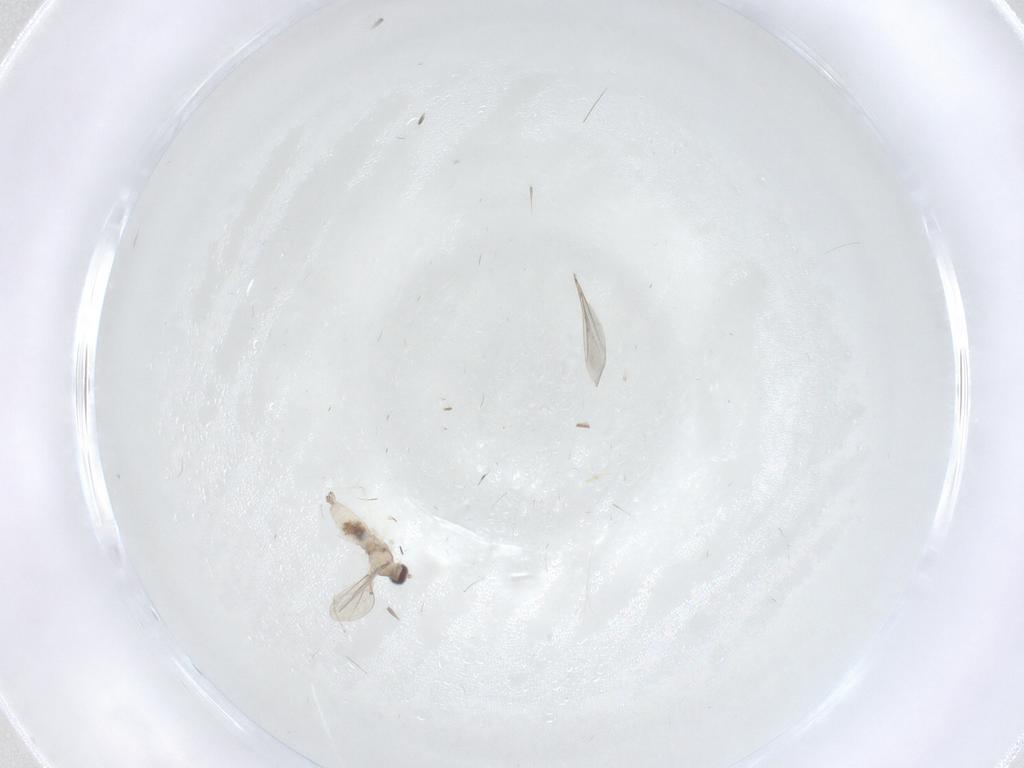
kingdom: Animalia
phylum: Arthropoda
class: Insecta
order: Diptera
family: Cecidomyiidae
